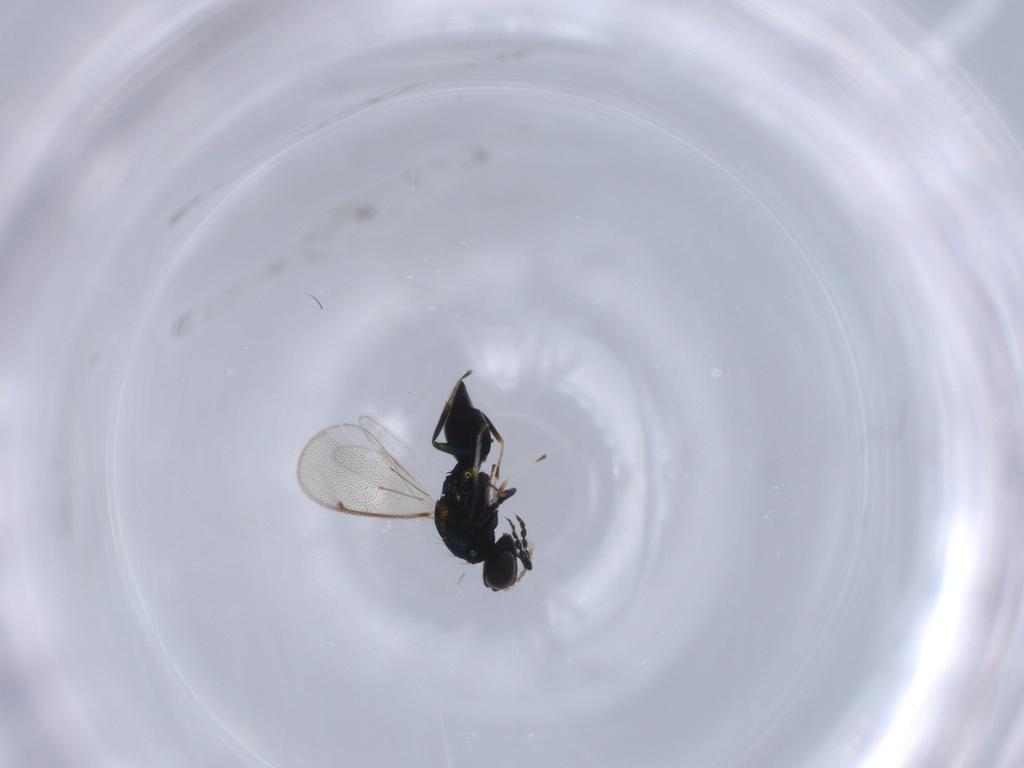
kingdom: Animalia
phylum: Arthropoda
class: Insecta
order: Hymenoptera
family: Eulophidae
